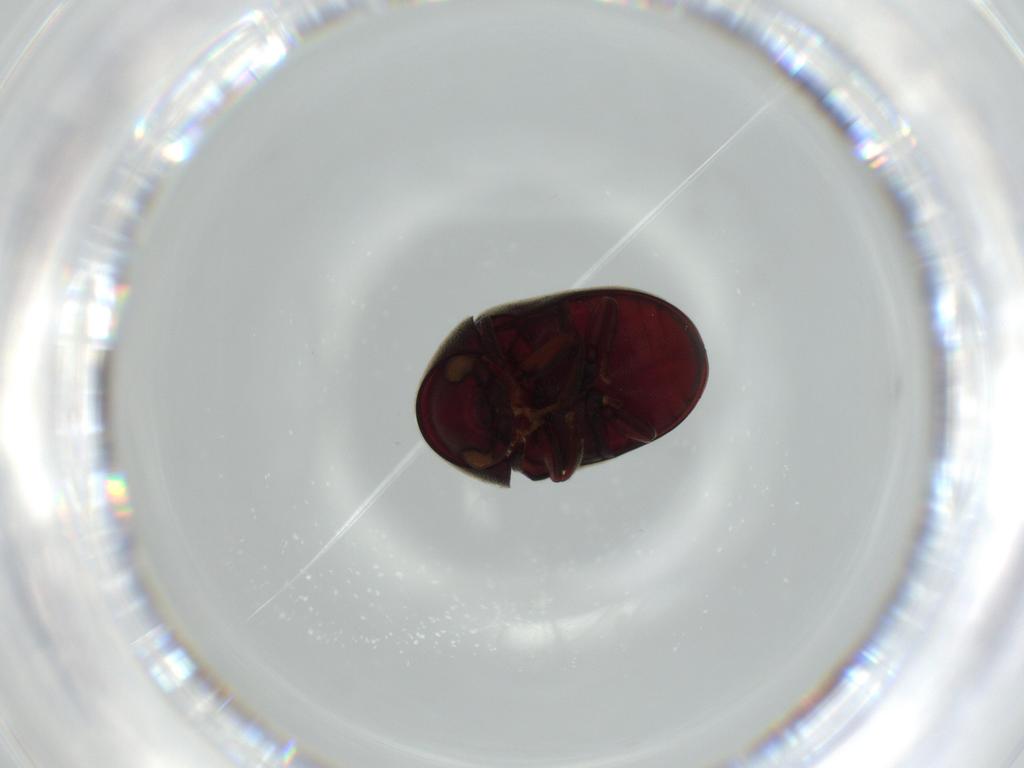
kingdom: Animalia
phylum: Arthropoda
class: Insecta
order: Coleoptera
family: Ptinidae
